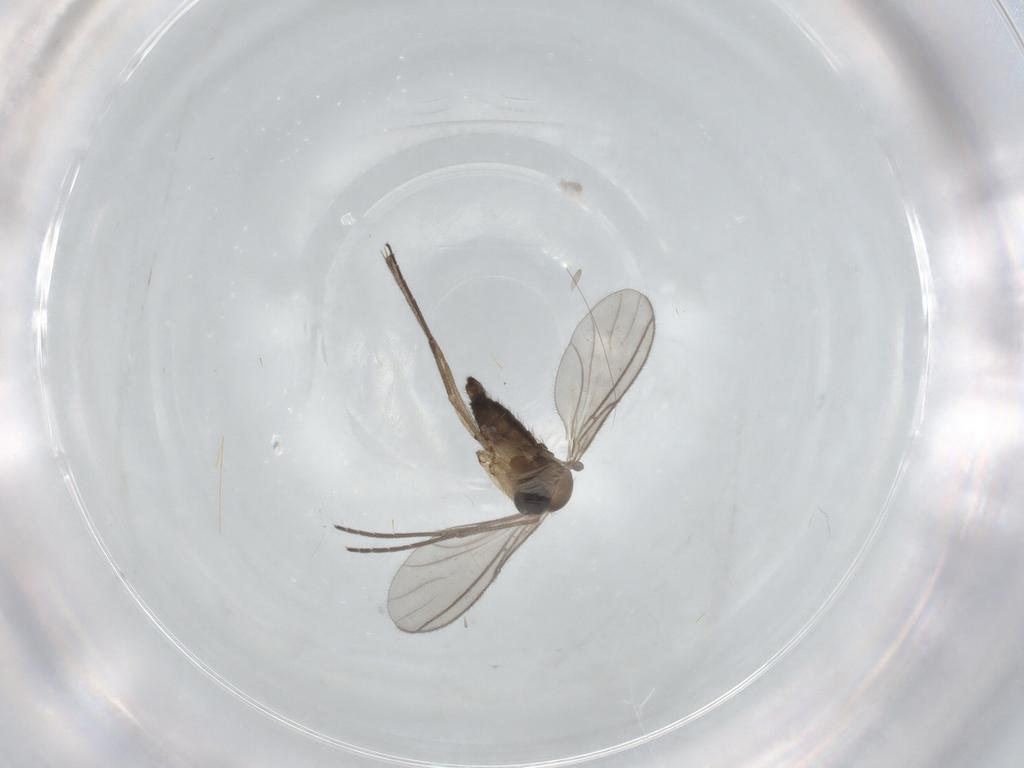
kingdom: Animalia
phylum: Arthropoda
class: Insecta
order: Diptera
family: Sciaridae
